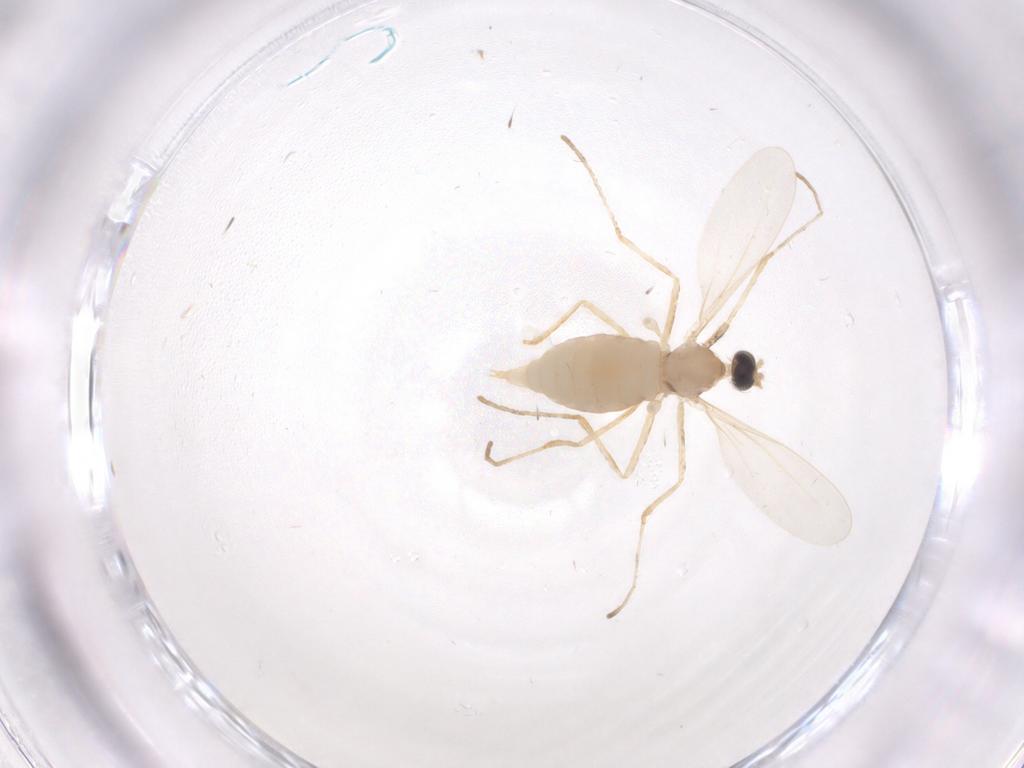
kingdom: Animalia
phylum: Arthropoda
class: Insecta
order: Diptera
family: Cecidomyiidae
